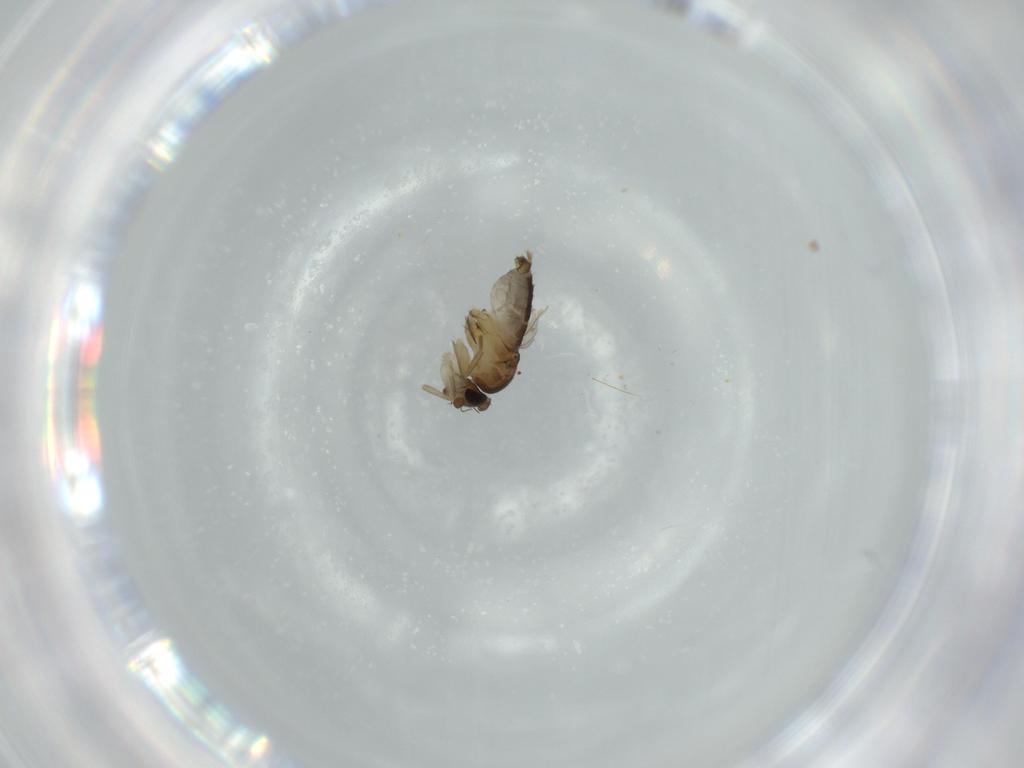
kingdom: Animalia
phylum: Arthropoda
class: Insecta
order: Diptera
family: Phoridae
